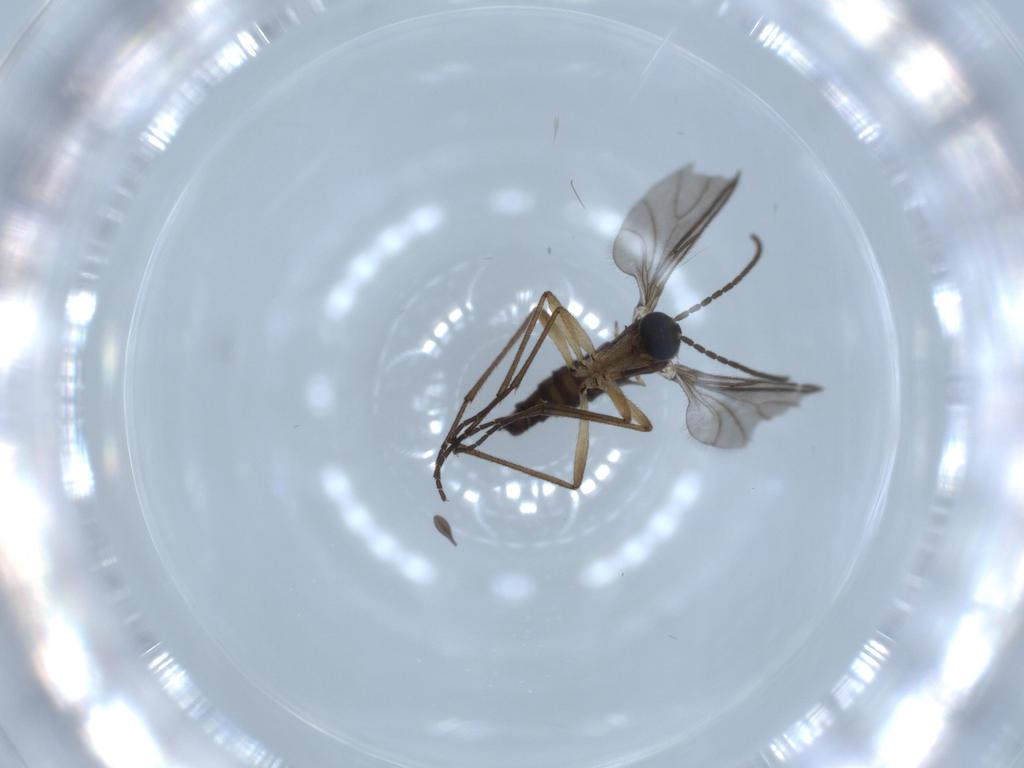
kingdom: Animalia
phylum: Arthropoda
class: Insecta
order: Diptera
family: Sciaridae
